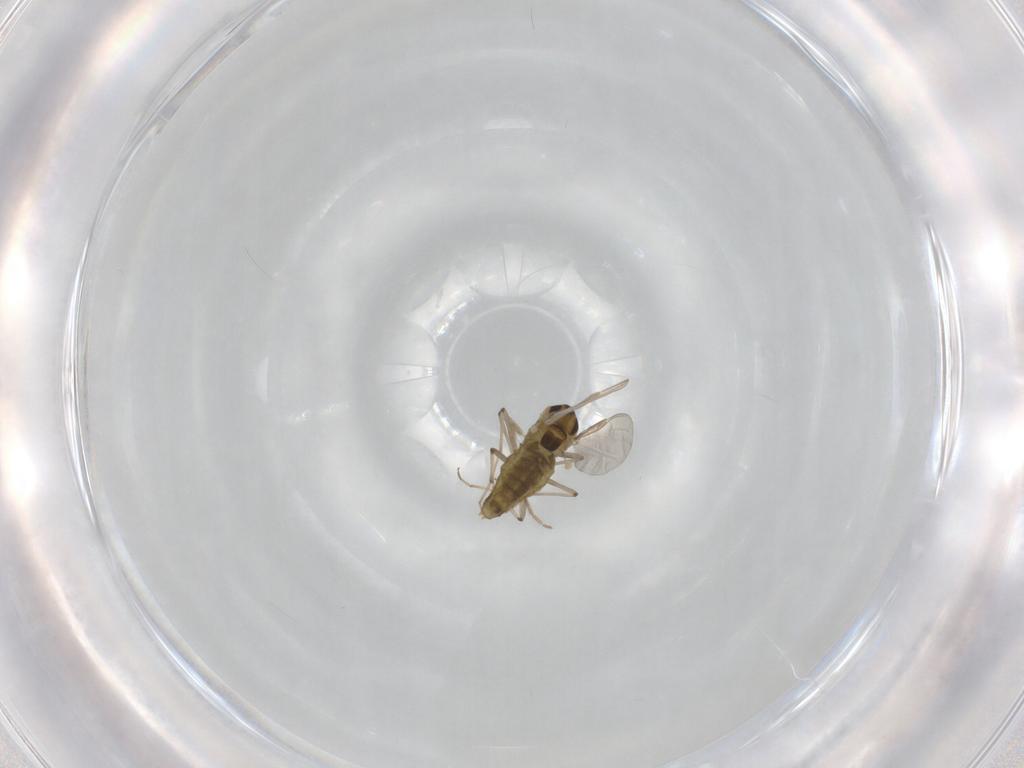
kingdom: Animalia
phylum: Arthropoda
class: Insecta
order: Diptera
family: Chironomidae
